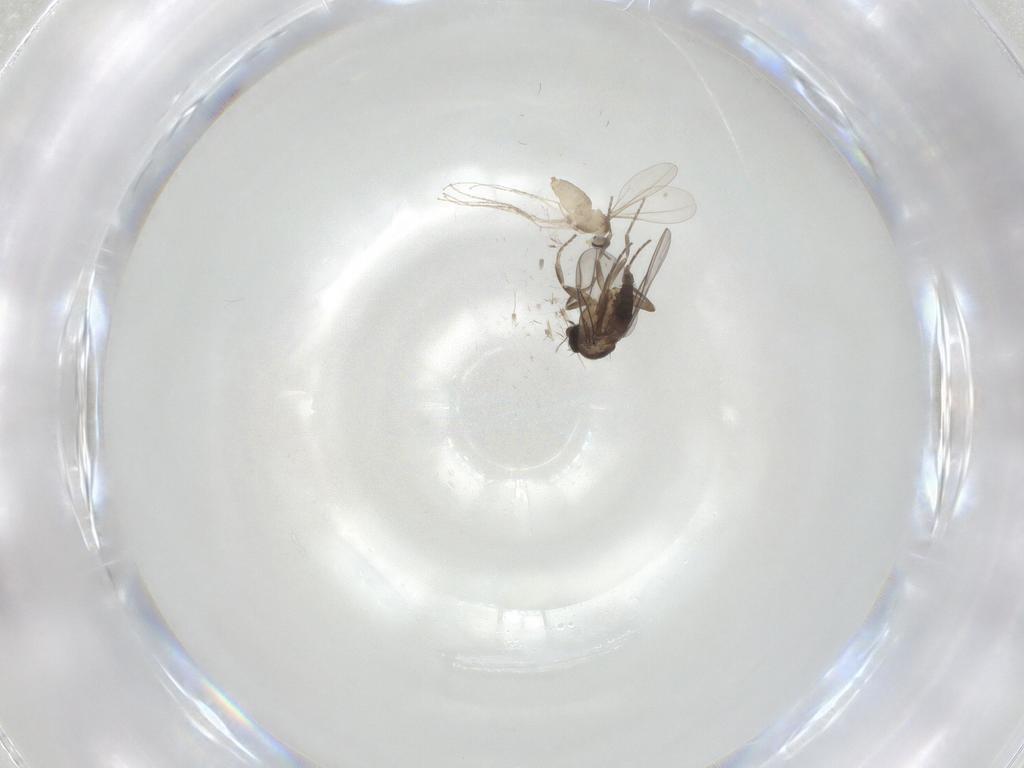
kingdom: Animalia
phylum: Arthropoda
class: Insecta
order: Diptera
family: Cecidomyiidae
